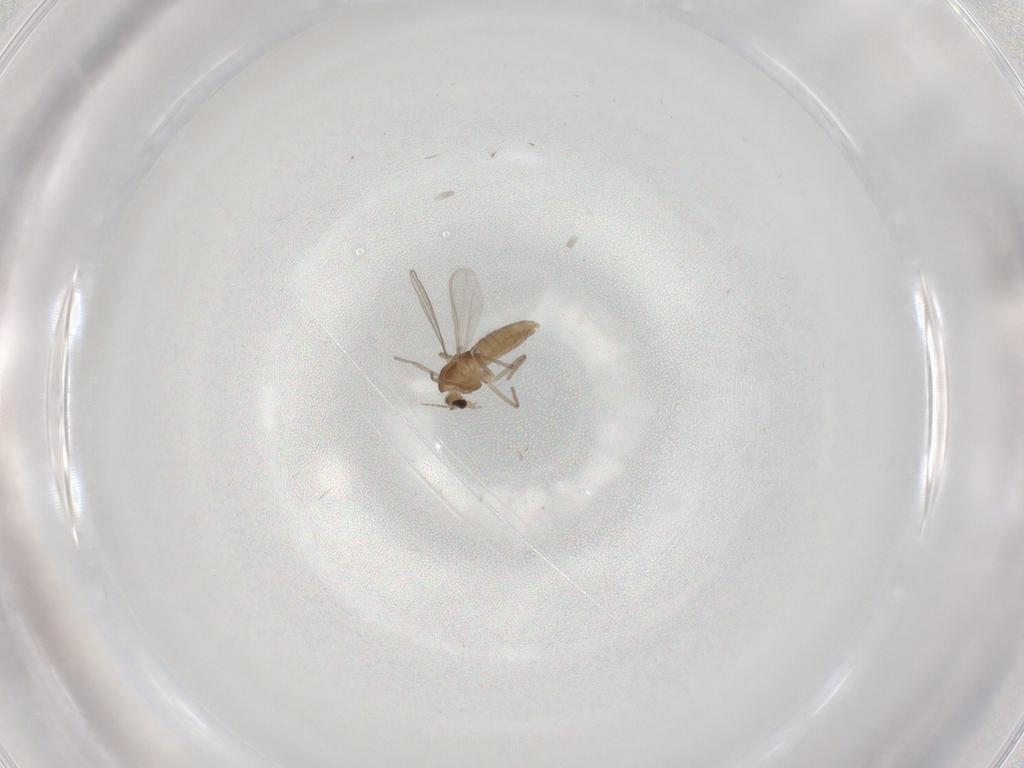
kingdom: Animalia
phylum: Arthropoda
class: Insecta
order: Diptera
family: Chironomidae
